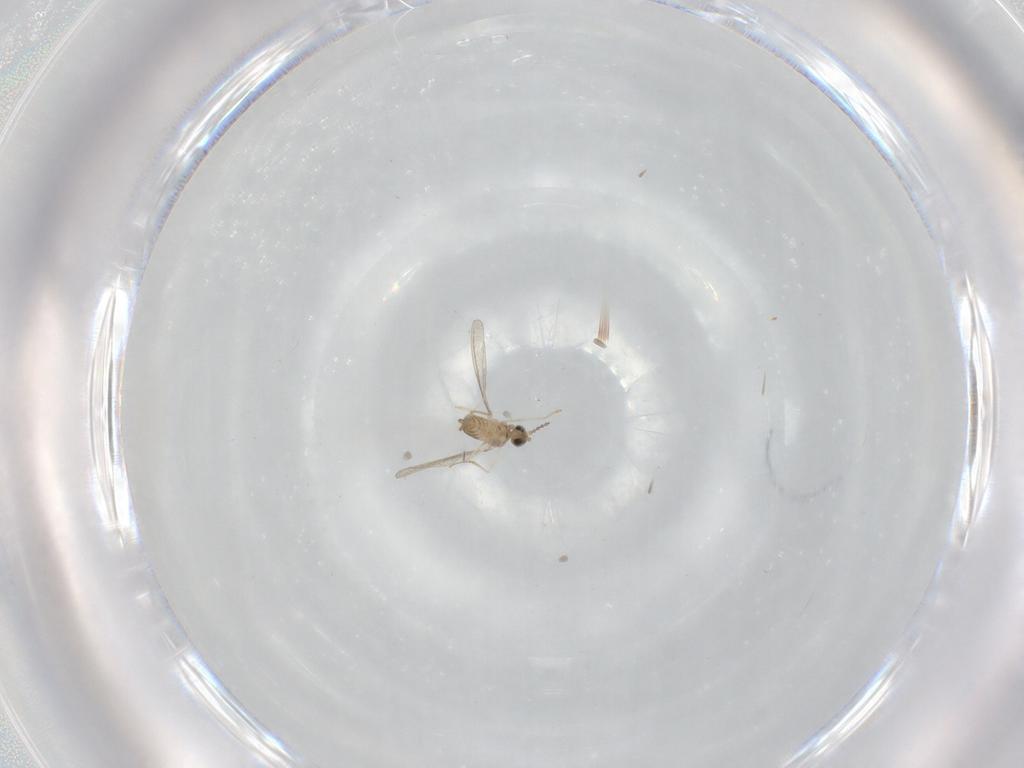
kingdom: Animalia
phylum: Arthropoda
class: Insecta
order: Diptera
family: Cecidomyiidae
